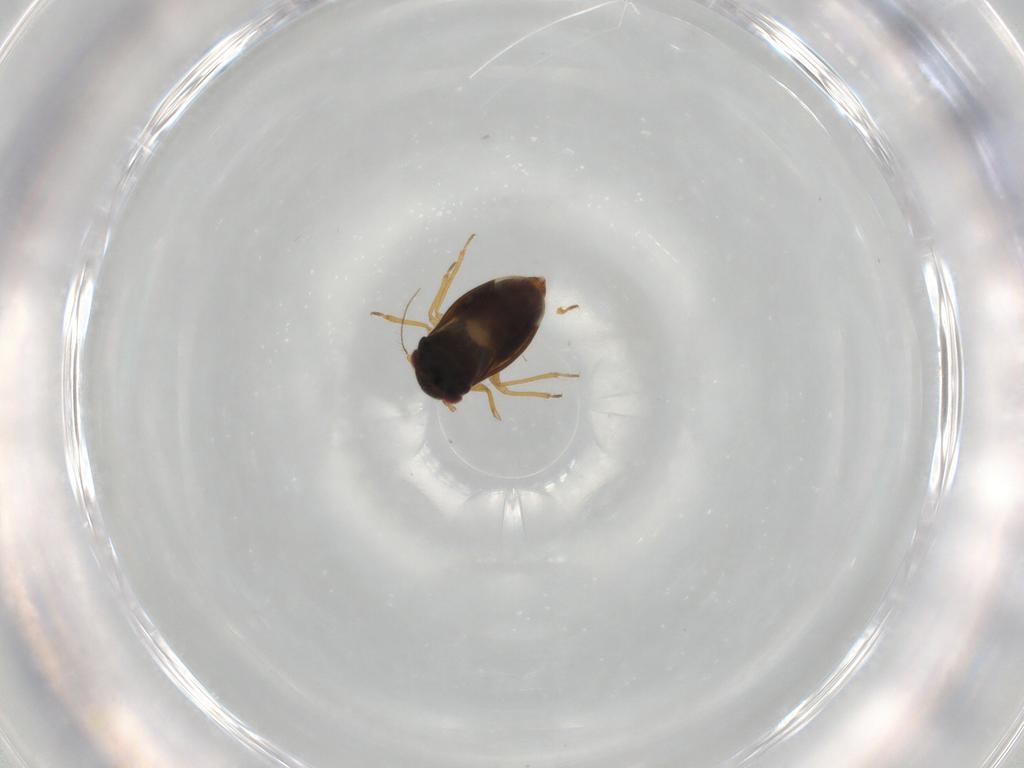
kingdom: Animalia
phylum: Arthropoda
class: Insecta
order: Hemiptera
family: Schizopteridae
